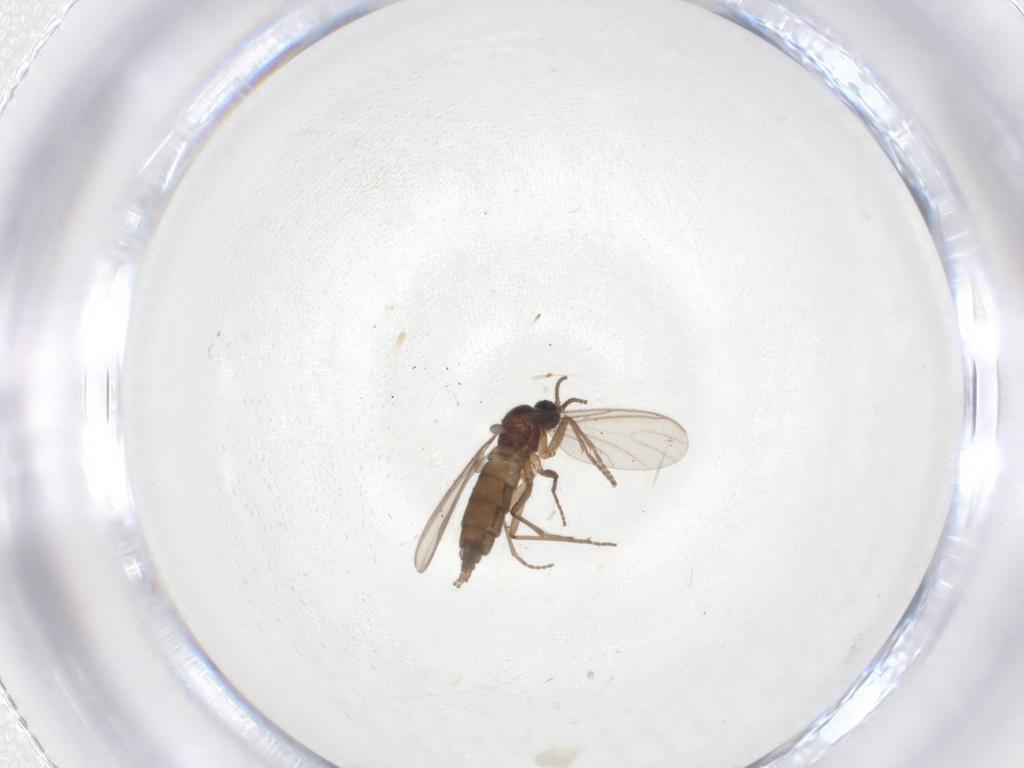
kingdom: Animalia
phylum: Arthropoda
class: Insecta
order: Diptera
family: Sciaridae
